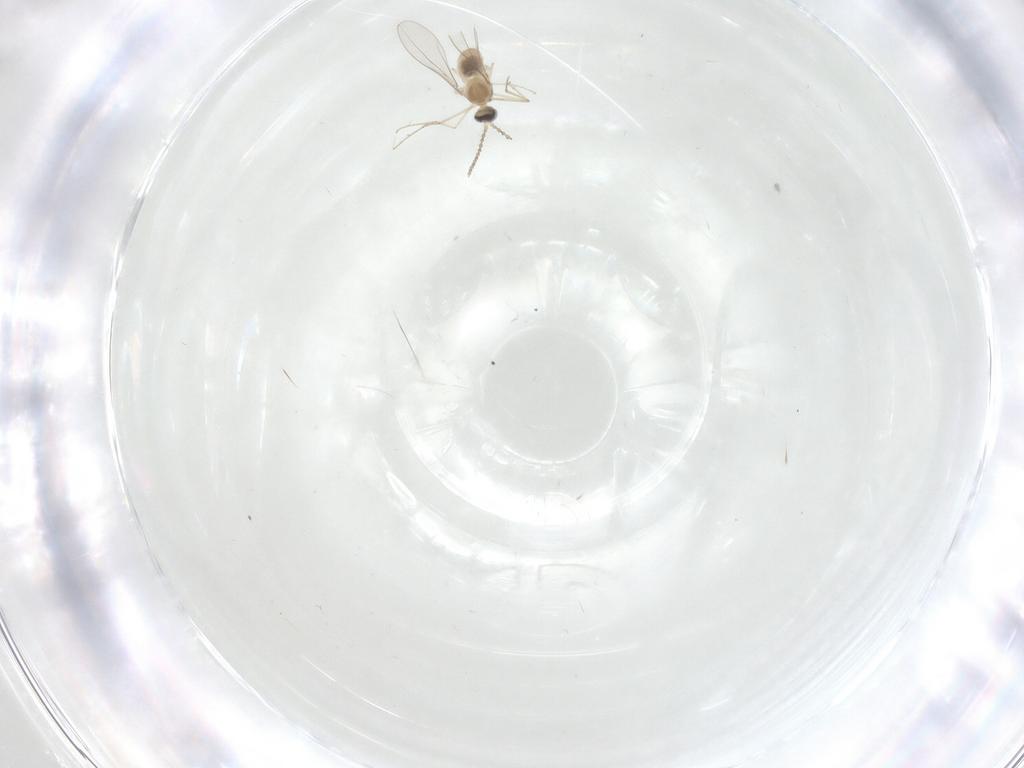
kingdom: Animalia
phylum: Arthropoda
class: Insecta
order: Diptera
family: Cecidomyiidae
